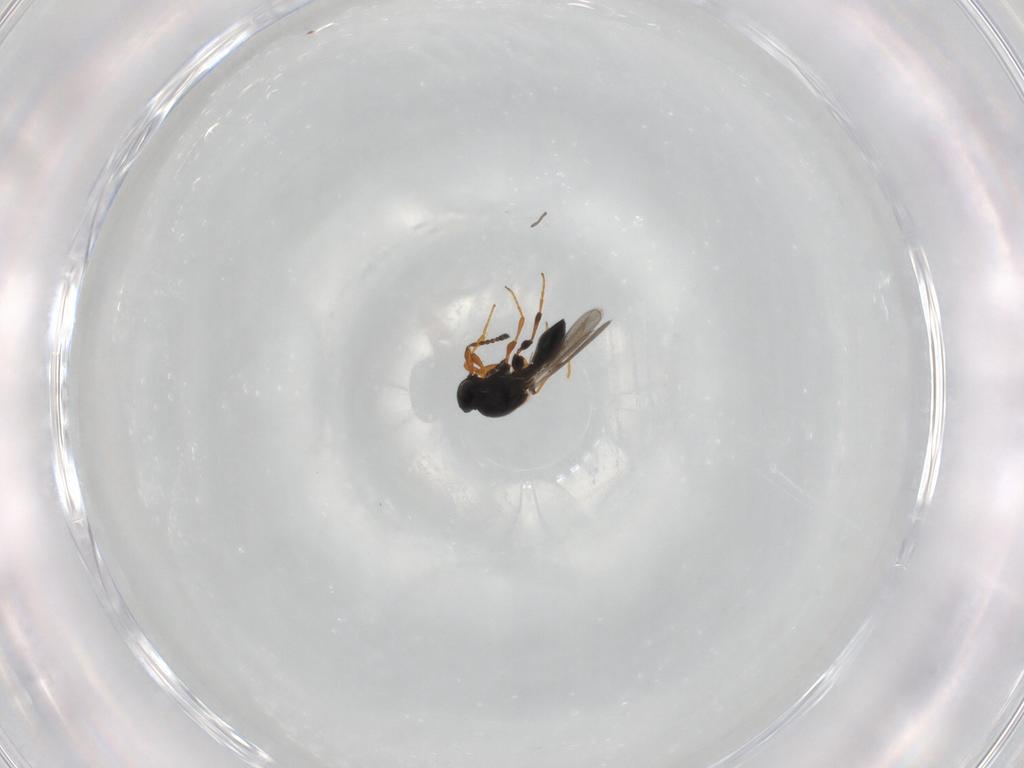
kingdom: Animalia
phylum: Arthropoda
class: Insecta
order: Hymenoptera
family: Platygastridae
